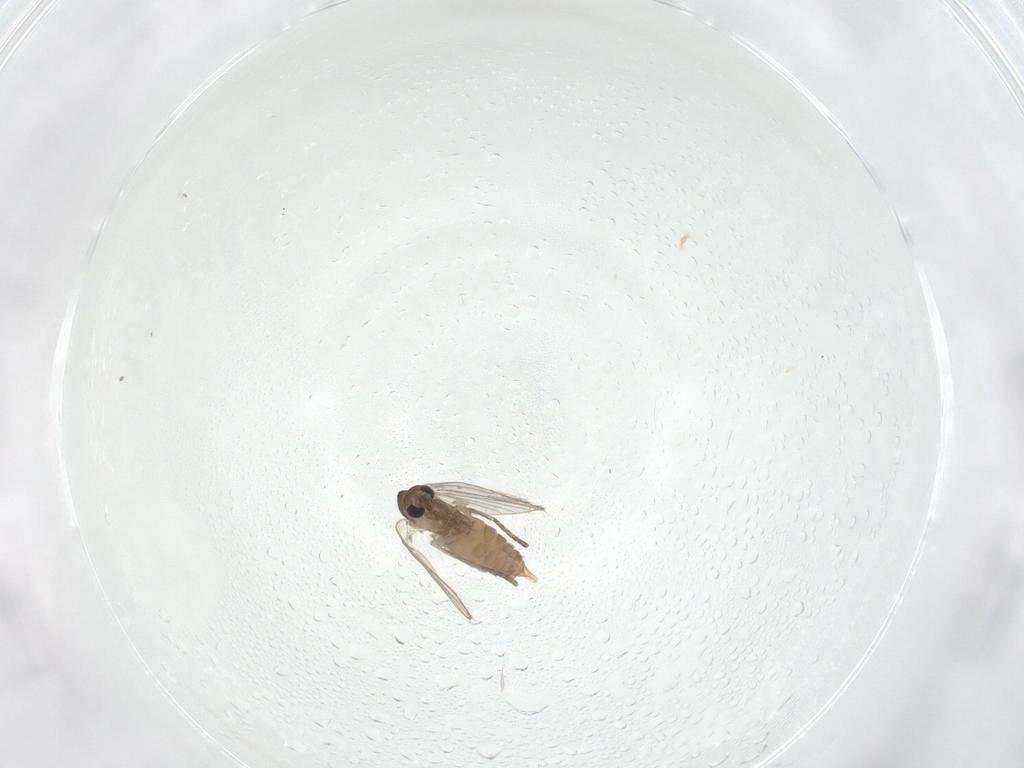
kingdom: Animalia
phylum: Arthropoda
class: Insecta
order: Diptera
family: Psychodidae
